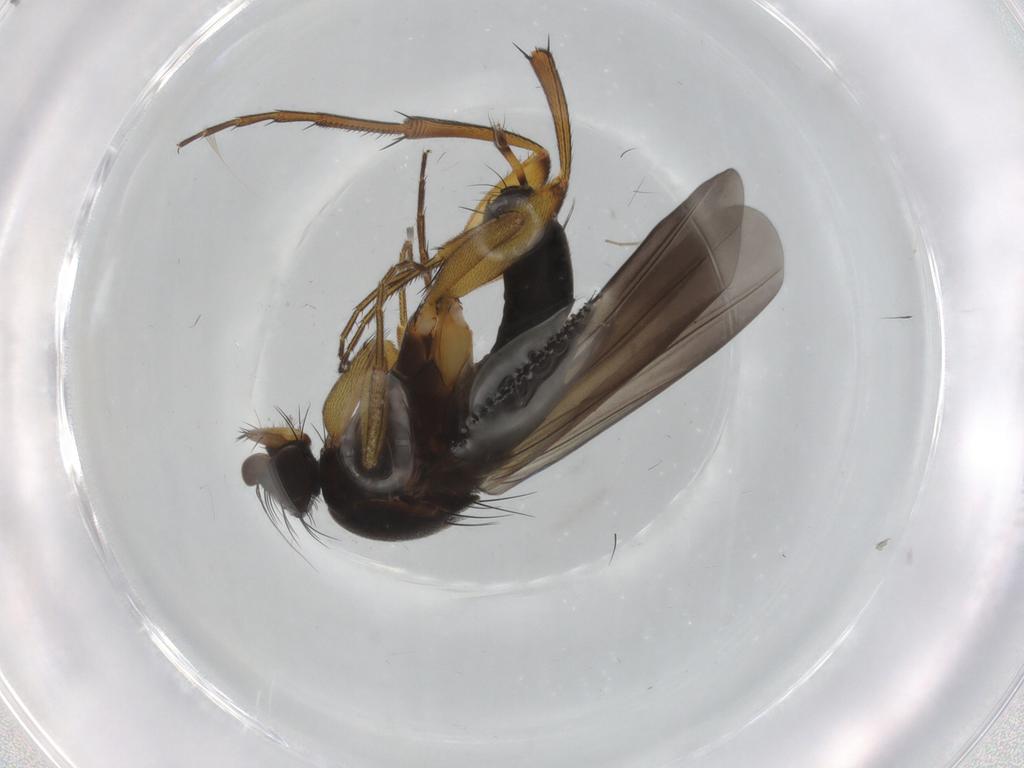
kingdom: Animalia
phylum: Arthropoda
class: Insecta
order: Diptera
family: Phoridae
